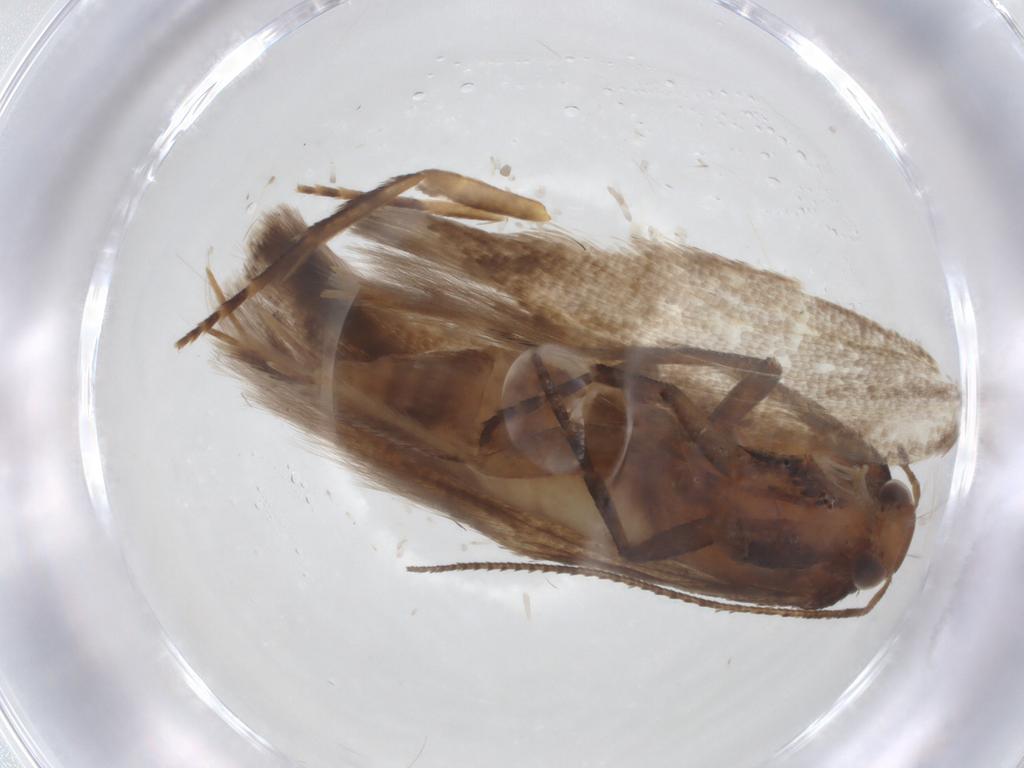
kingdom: Animalia
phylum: Arthropoda
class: Insecta
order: Lepidoptera
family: Gelechiidae
